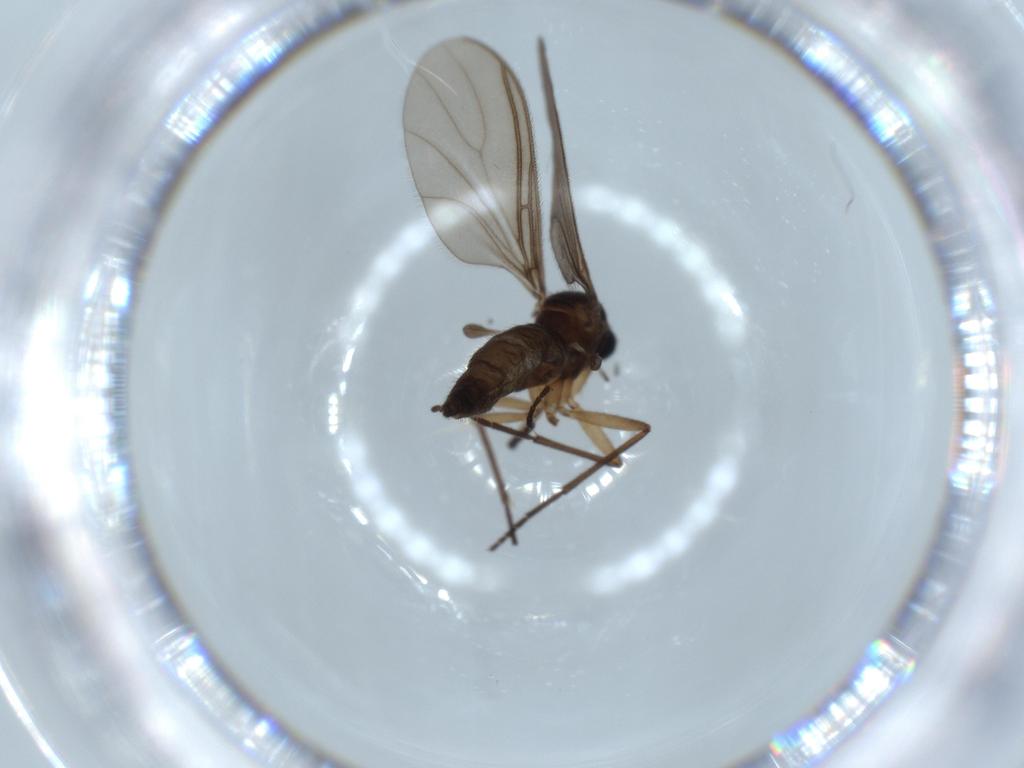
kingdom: Animalia
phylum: Arthropoda
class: Insecta
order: Diptera
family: Sciaridae
